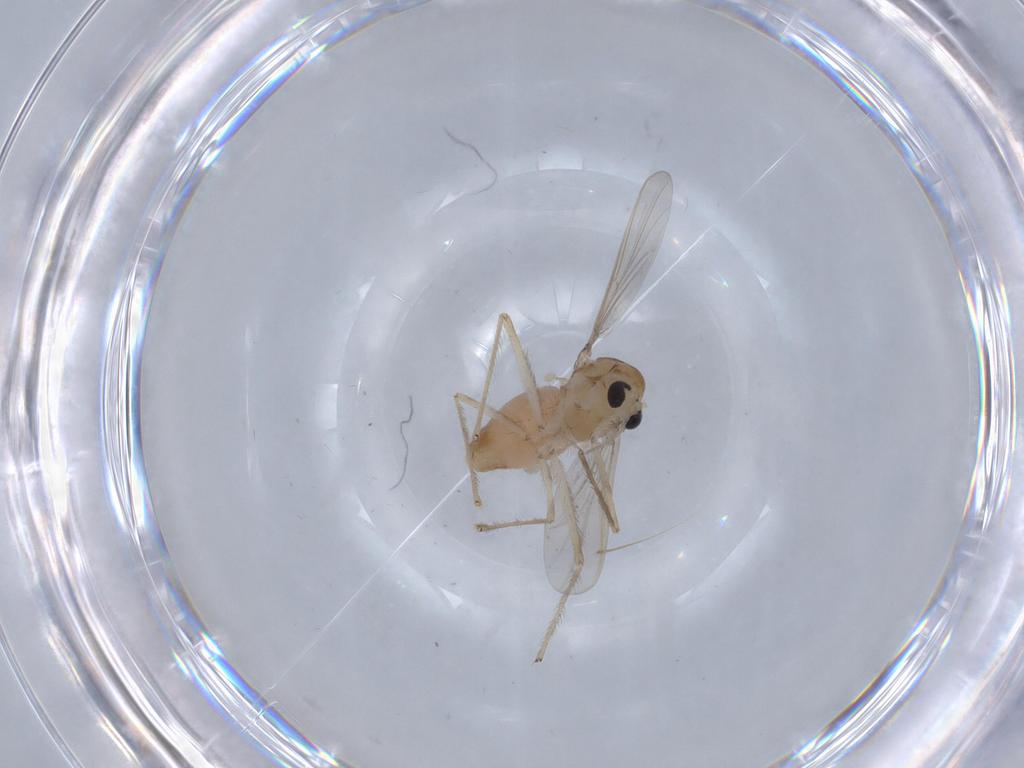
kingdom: Animalia
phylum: Arthropoda
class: Insecta
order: Diptera
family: Chironomidae
